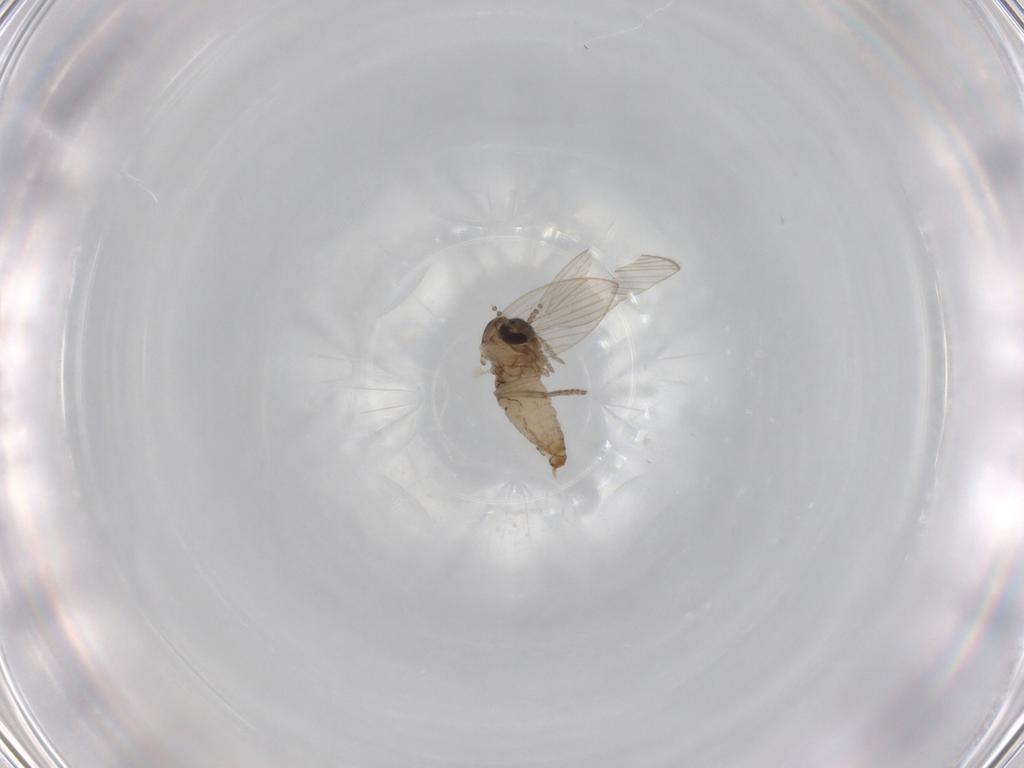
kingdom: Animalia
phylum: Arthropoda
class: Insecta
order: Diptera
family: Psychodidae
